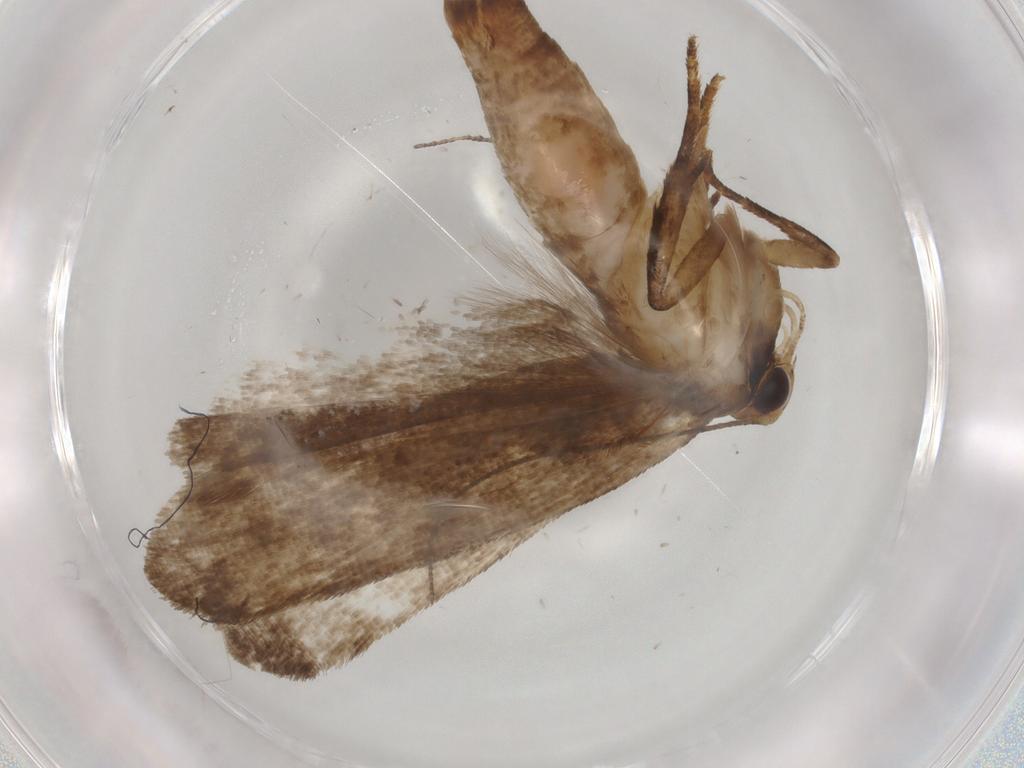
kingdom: Animalia
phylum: Arthropoda
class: Insecta
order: Lepidoptera
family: Gelechiidae
